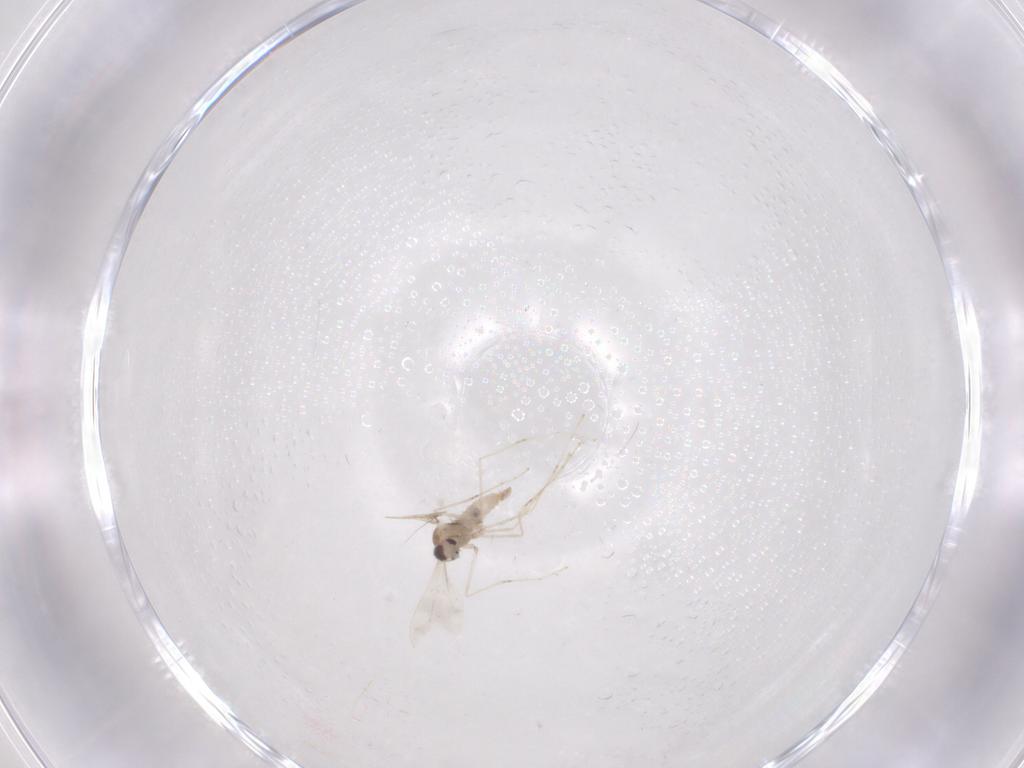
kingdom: Animalia
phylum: Arthropoda
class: Insecta
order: Diptera
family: Cecidomyiidae
